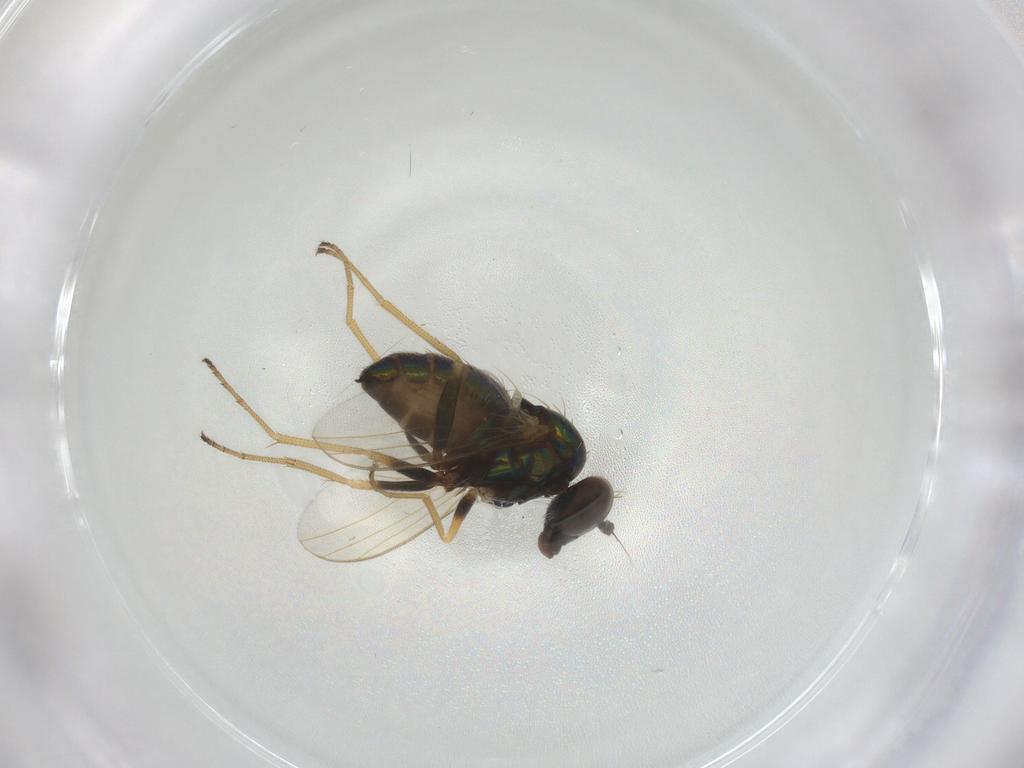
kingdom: Animalia
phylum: Arthropoda
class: Insecta
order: Diptera
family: Dolichopodidae
